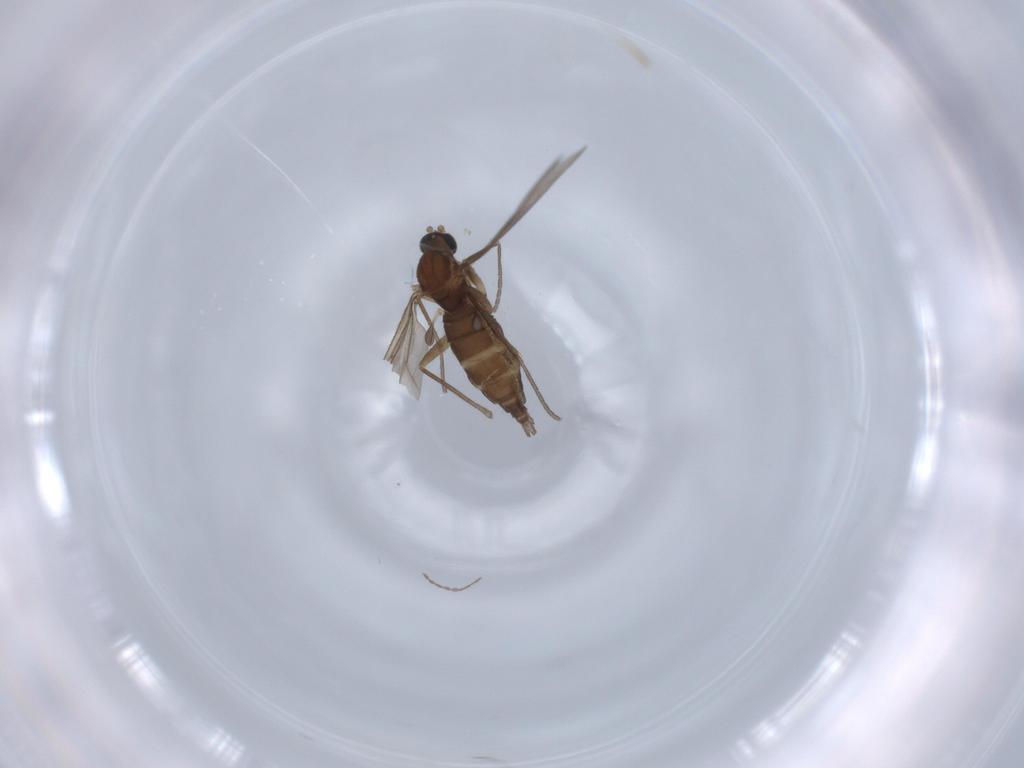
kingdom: Animalia
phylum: Arthropoda
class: Insecta
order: Diptera
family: Sciaridae
